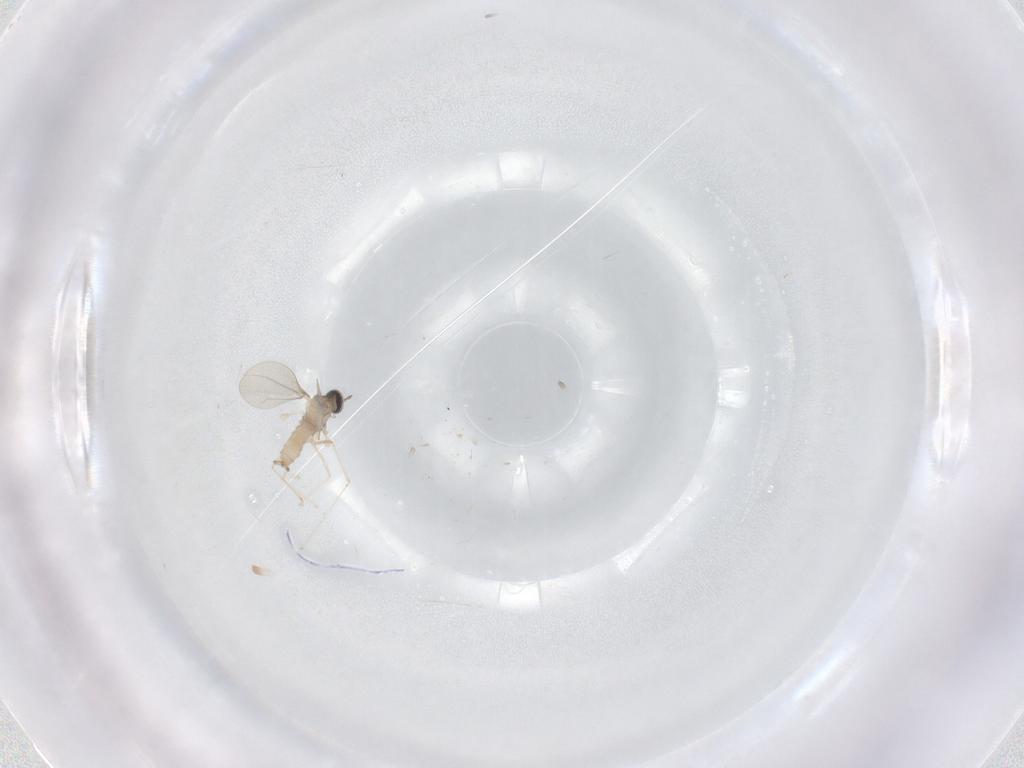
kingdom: Animalia
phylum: Arthropoda
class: Insecta
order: Diptera
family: Cecidomyiidae
